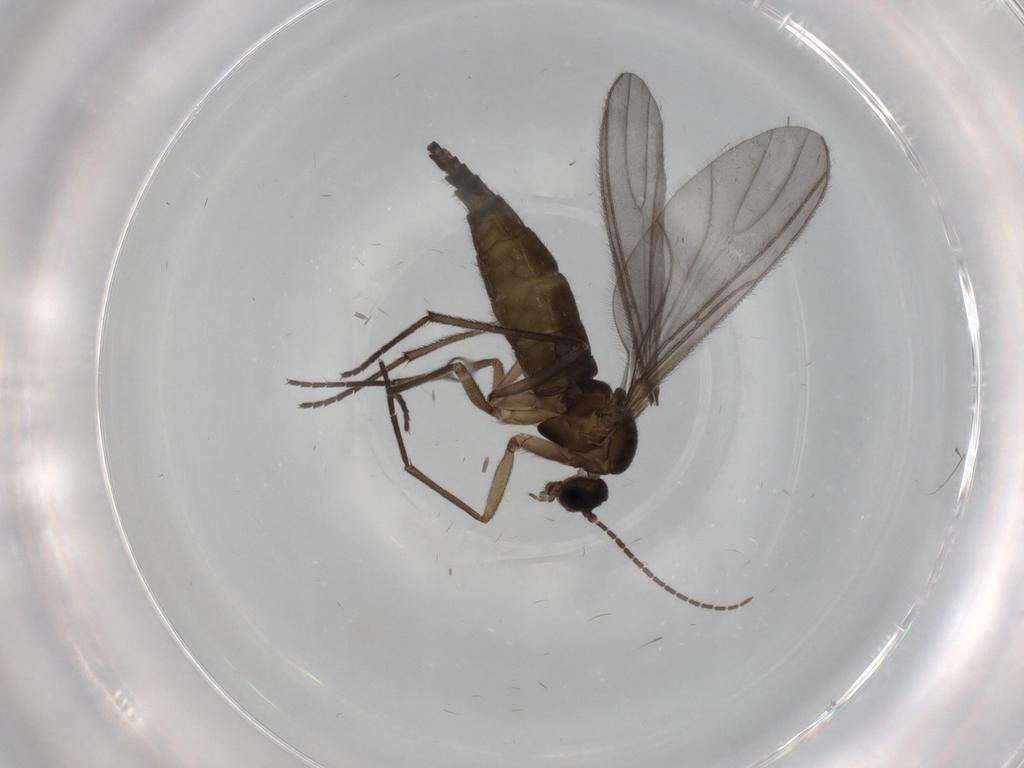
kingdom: Animalia
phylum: Arthropoda
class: Insecta
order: Diptera
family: Sciaridae
